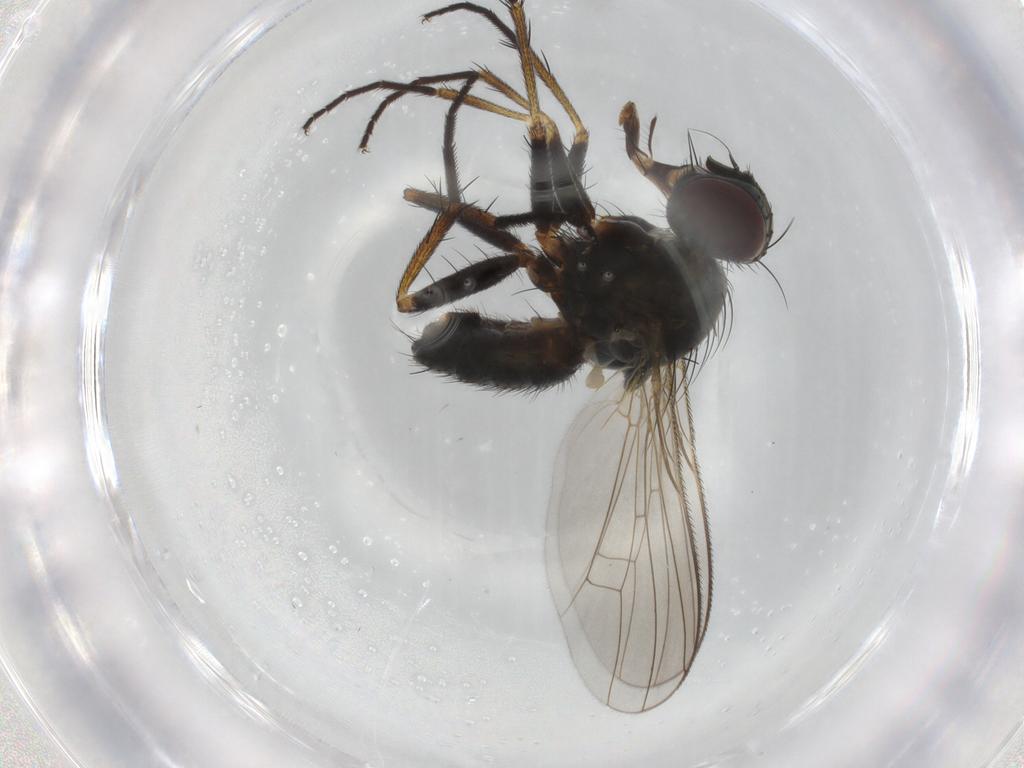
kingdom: Animalia
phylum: Arthropoda
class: Insecta
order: Diptera
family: Muscidae
